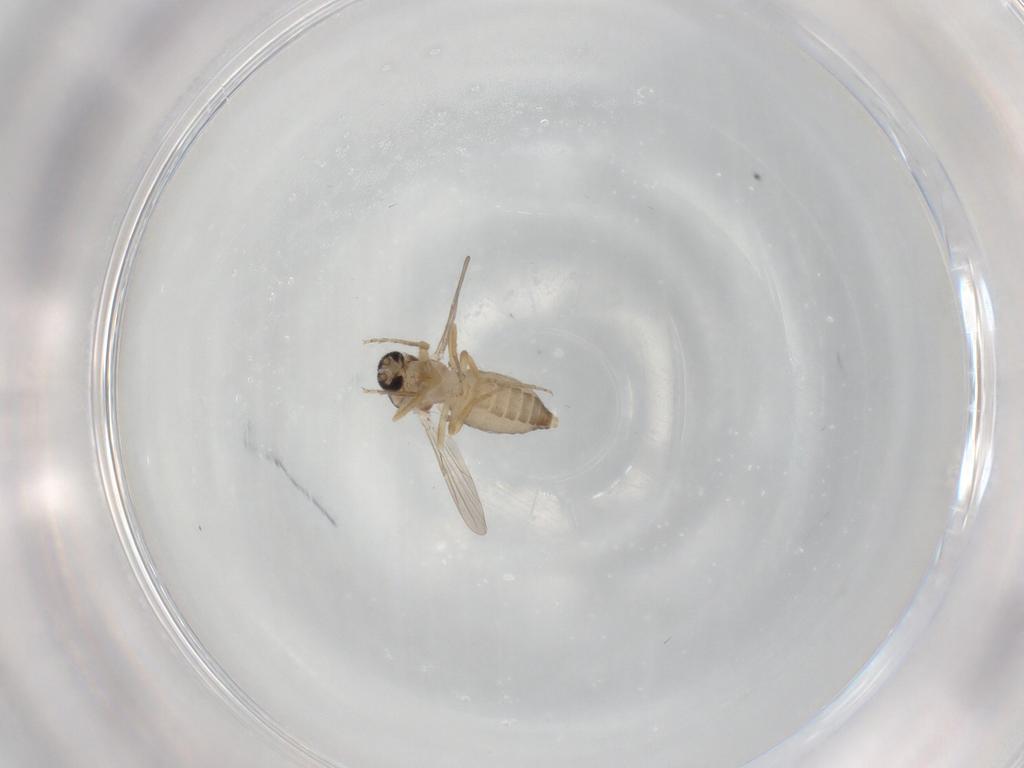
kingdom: Animalia
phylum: Arthropoda
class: Insecta
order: Diptera
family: Ceratopogonidae
